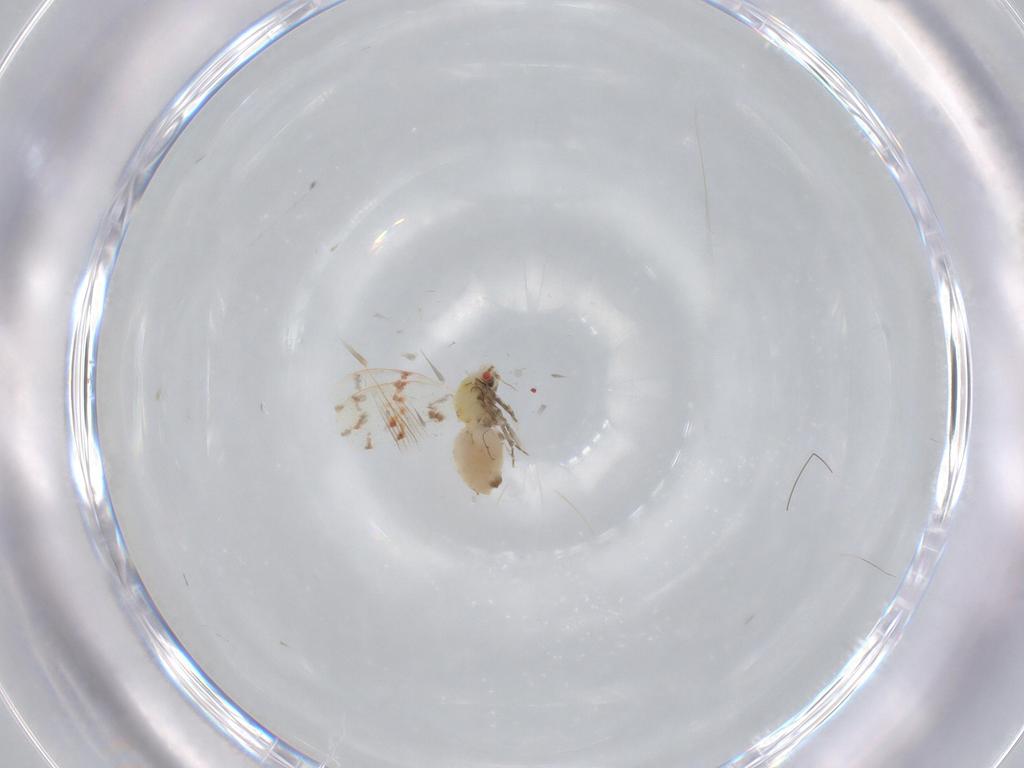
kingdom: Animalia
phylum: Arthropoda
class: Insecta
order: Hemiptera
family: Aleyrodidae
